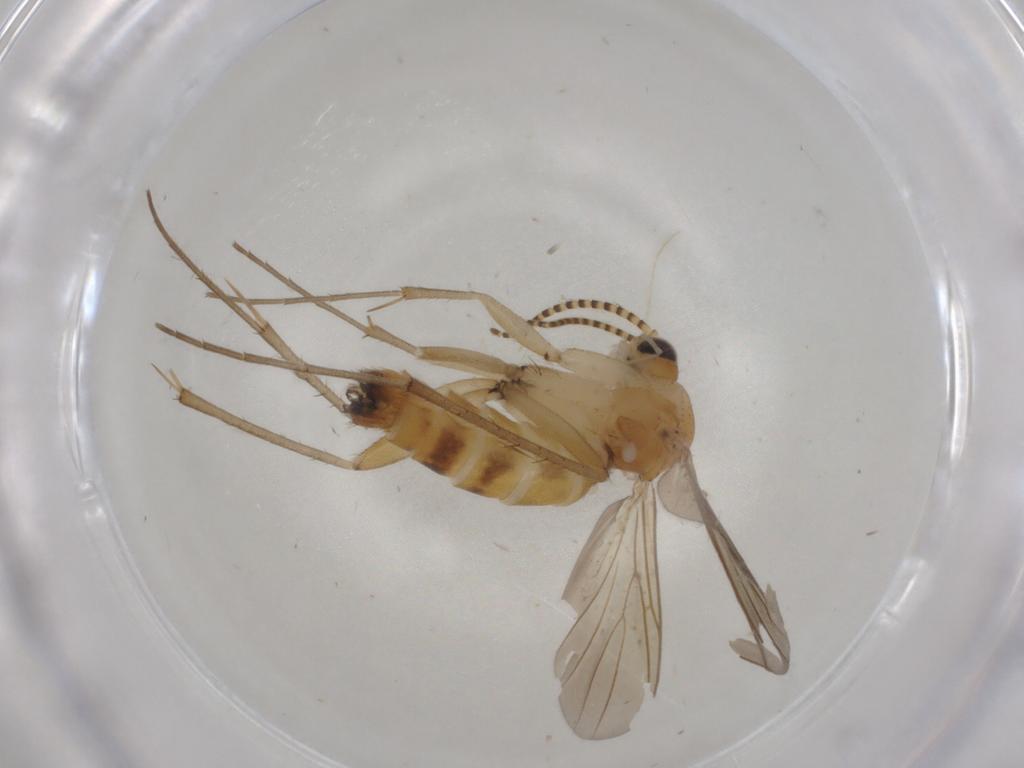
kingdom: Animalia
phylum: Arthropoda
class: Insecta
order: Diptera
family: Mycetophilidae
